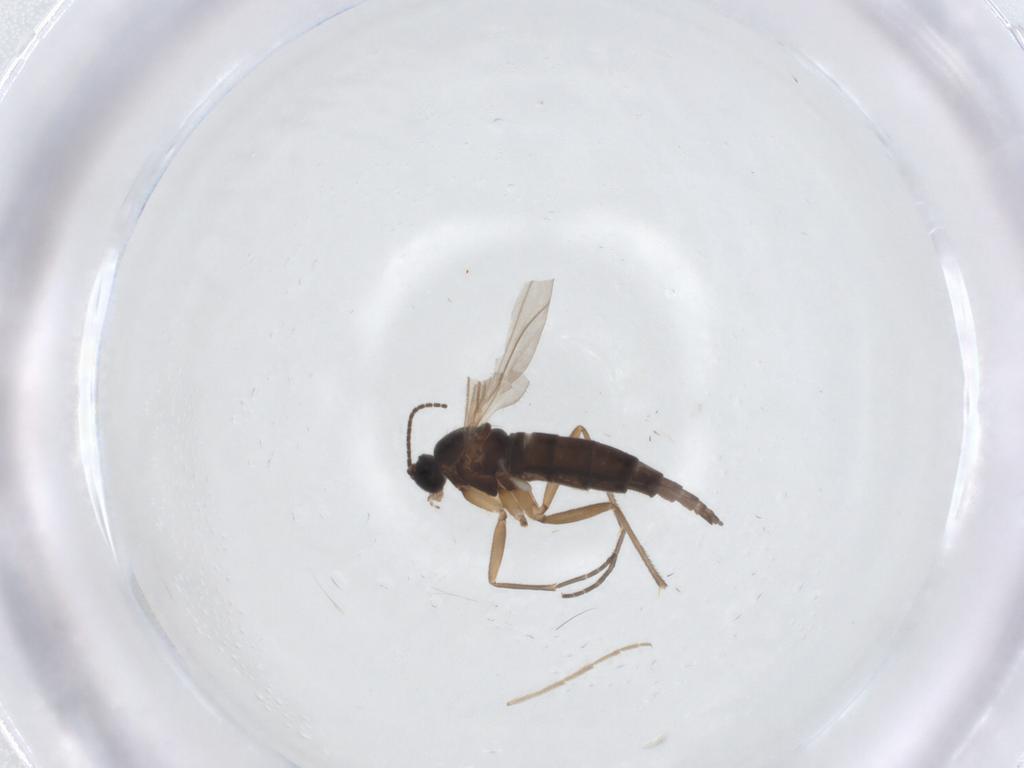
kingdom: Animalia
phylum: Arthropoda
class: Insecta
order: Diptera
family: Sciaridae
